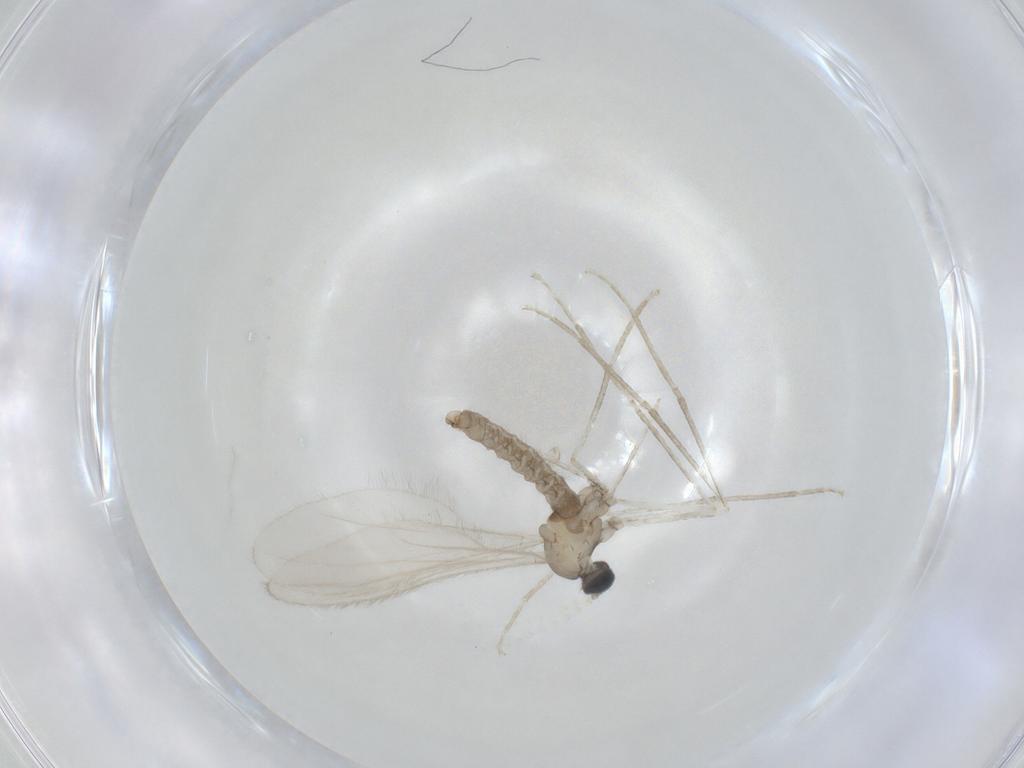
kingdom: Animalia
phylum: Arthropoda
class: Insecta
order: Diptera
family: Cecidomyiidae
